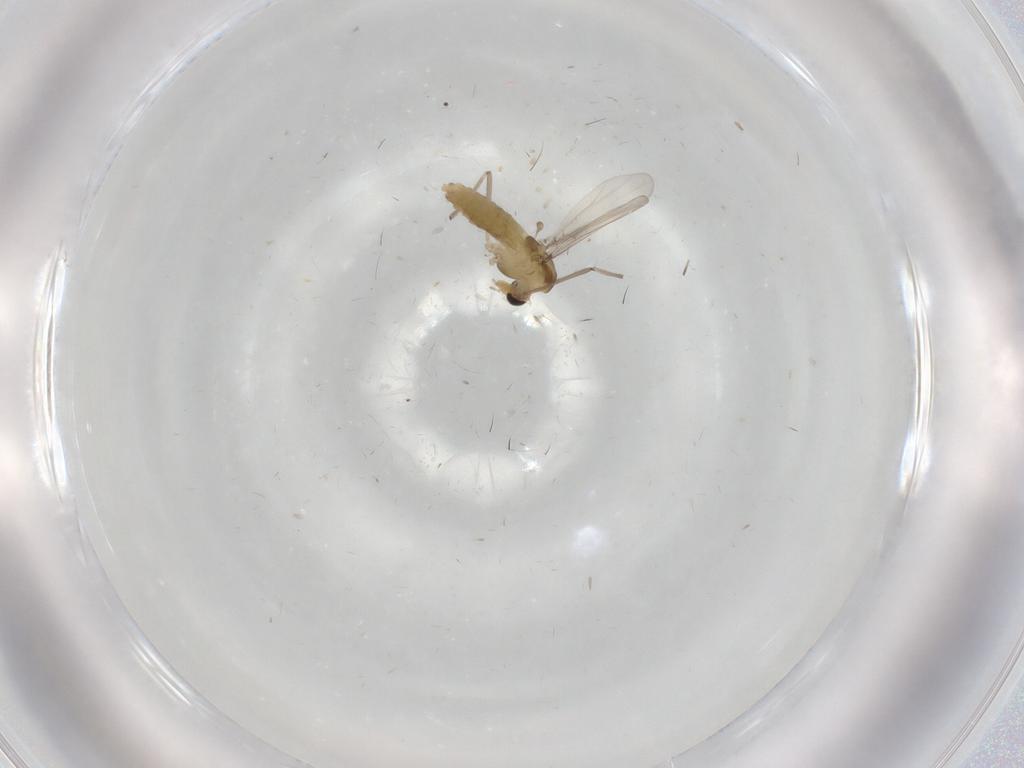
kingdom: Animalia
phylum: Arthropoda
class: Insecta
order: Diptera
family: Chironomidae
